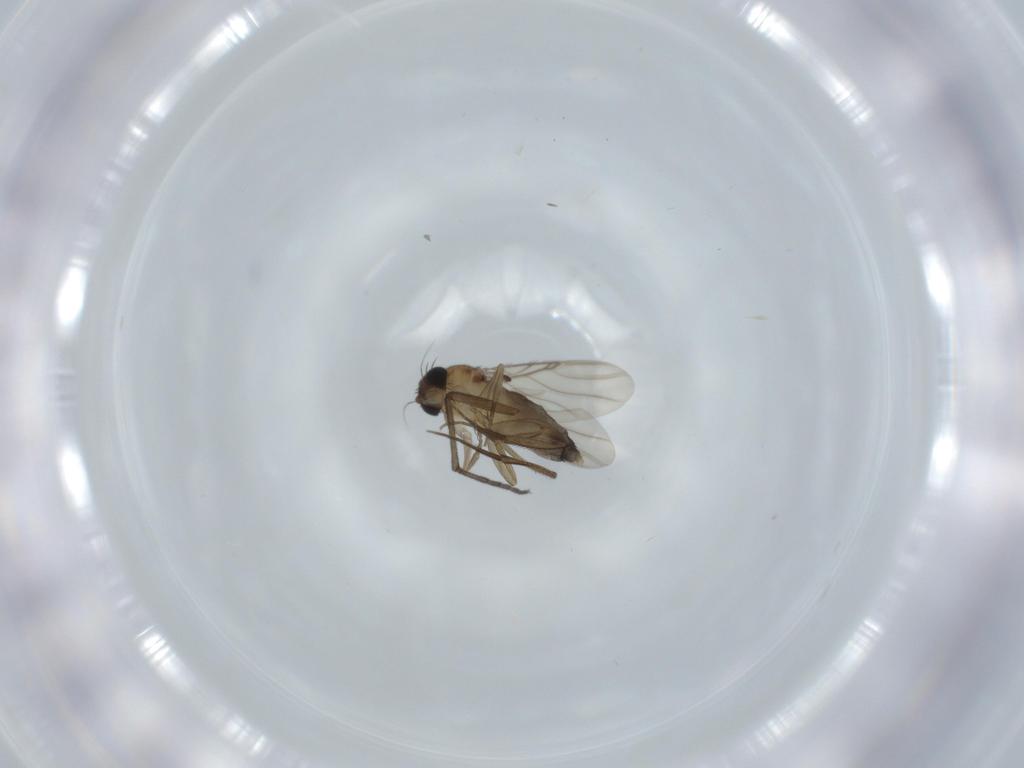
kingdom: Animalia
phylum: Arthropoda
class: Insecta
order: Diptera
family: Phoridae
